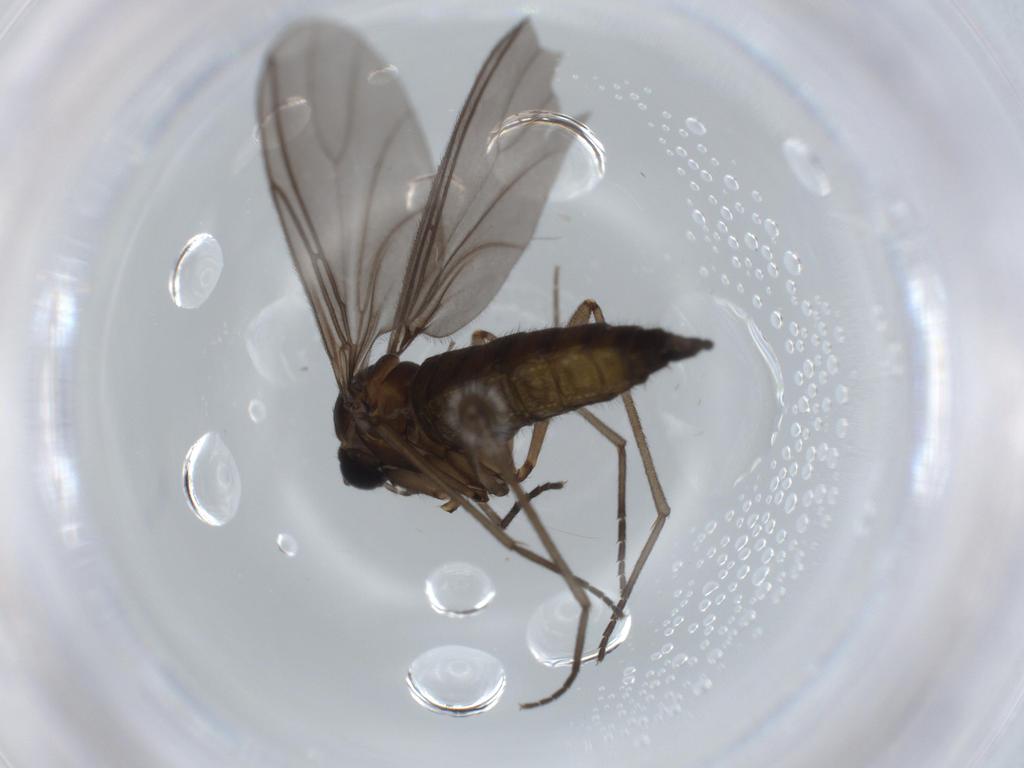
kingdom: Animalia
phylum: Arthropoda
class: Insecta
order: Diptera
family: Sciaridae
